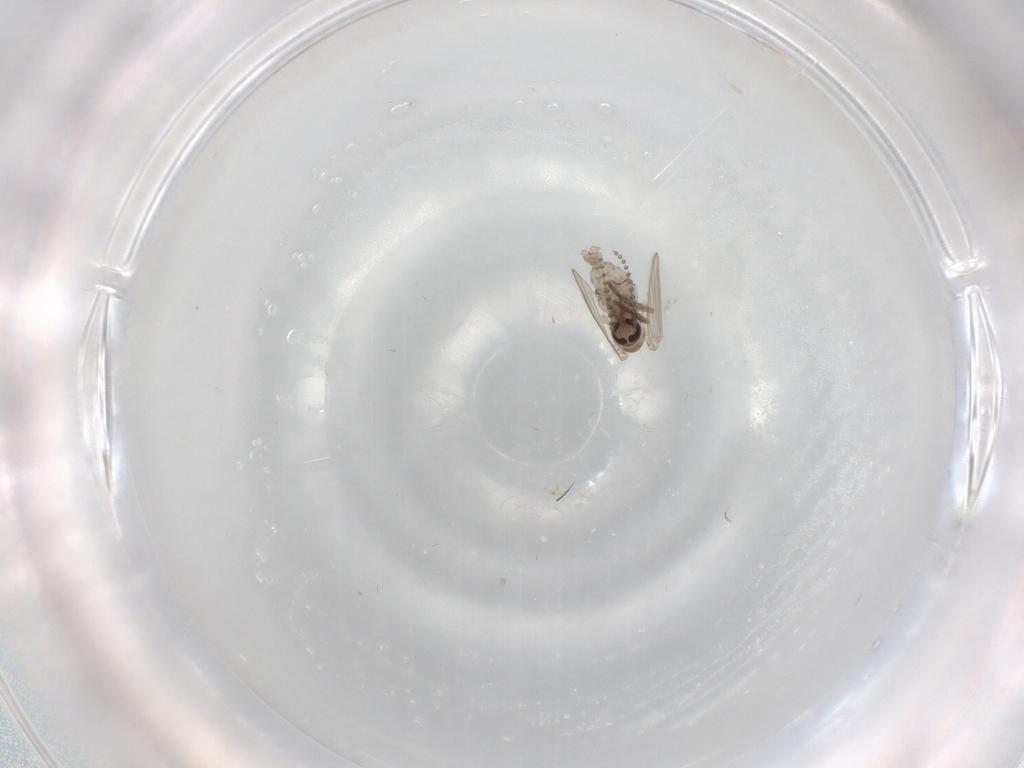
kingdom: Animalia
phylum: Arthropoda
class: Insecta
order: Diptera
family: Psychodidae
